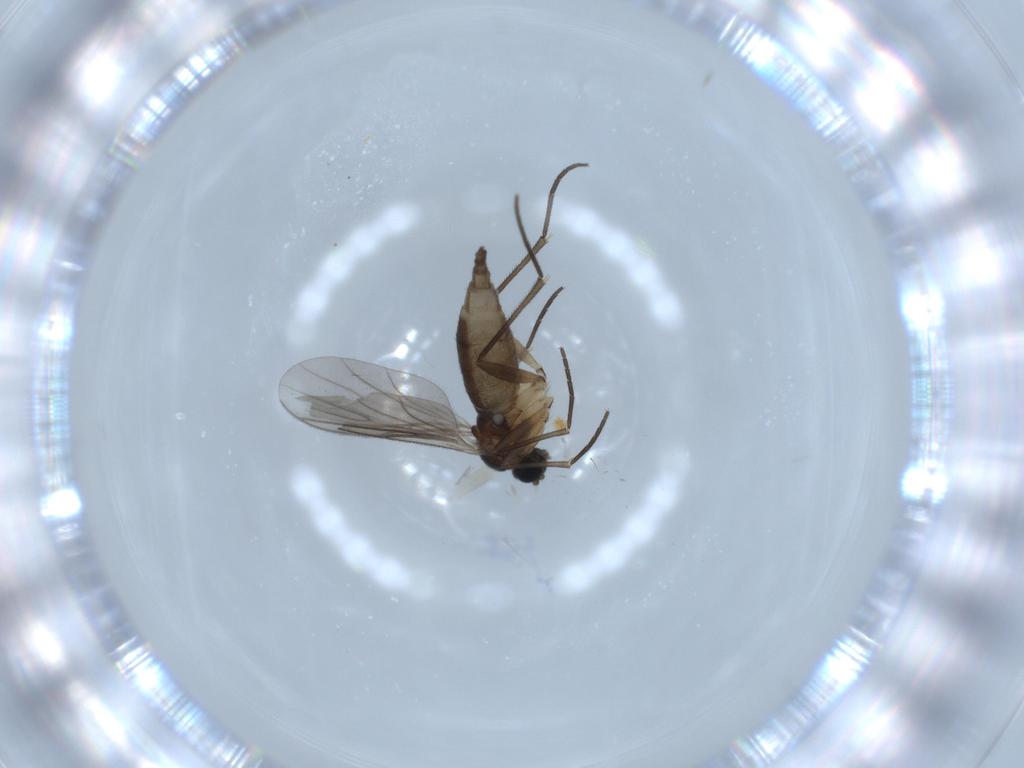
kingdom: Animalia
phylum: Arthropoda
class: Insecta
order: Diptera
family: Sciaridae
